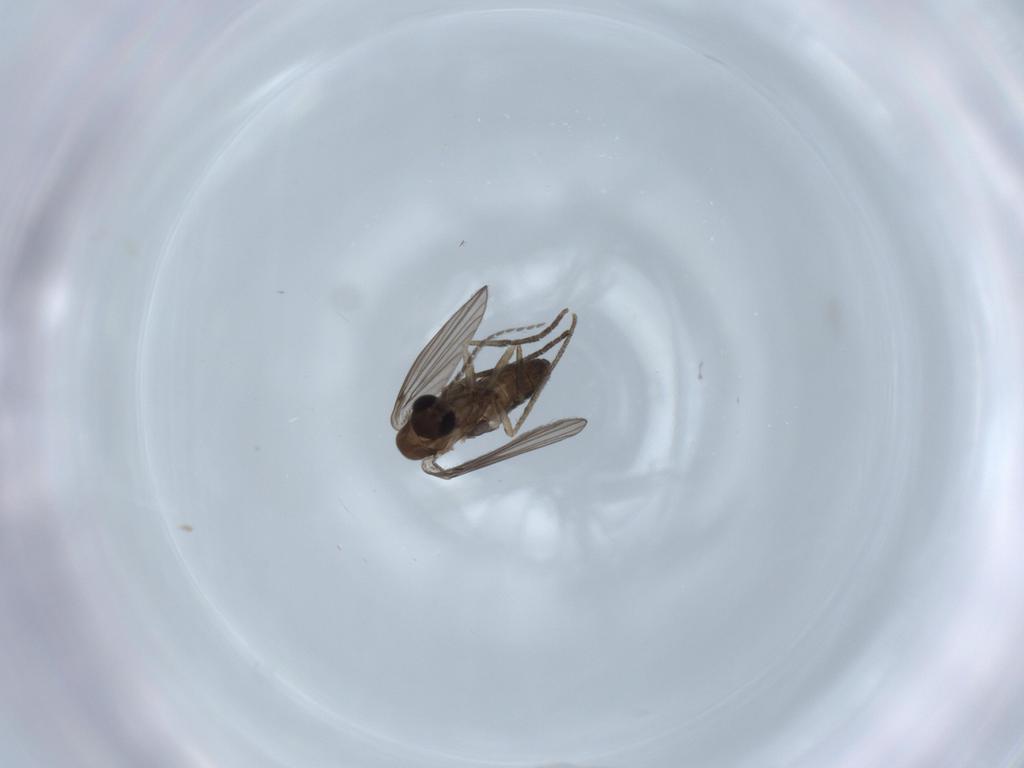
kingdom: Animalia
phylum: Arthropoda
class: Insecta
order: Diptera
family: Psychodidae
